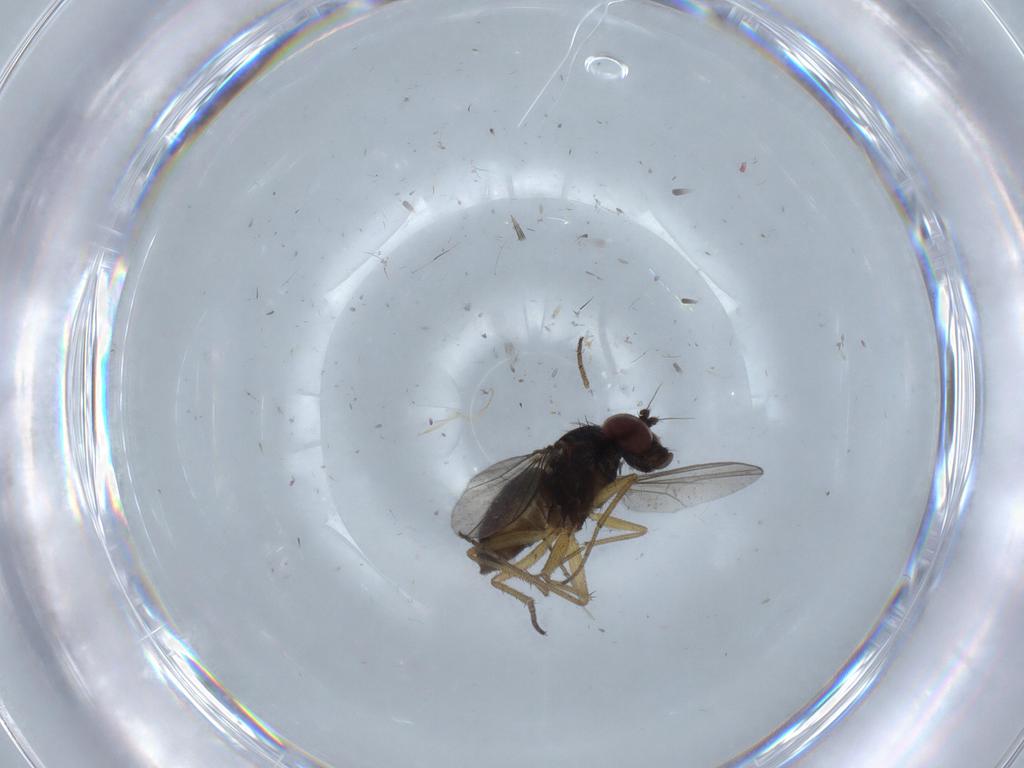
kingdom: Animalia
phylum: Arthropoda
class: Insecta
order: Diptera
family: Dolichopodidae
